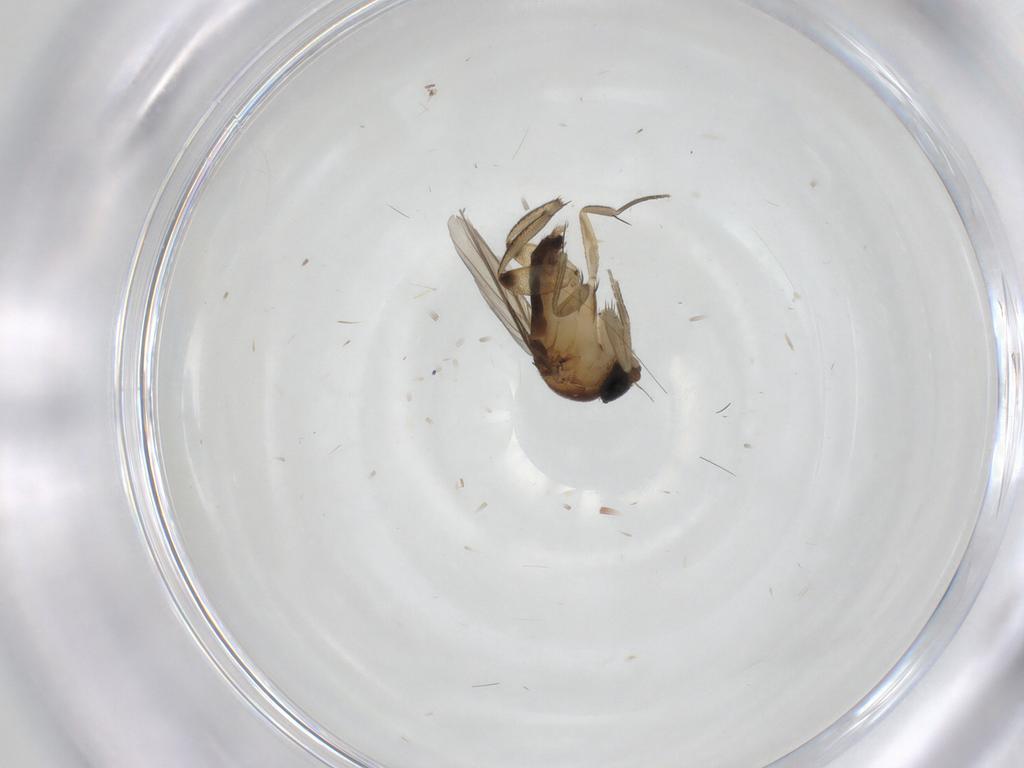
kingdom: Animalia
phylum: Arthropoda
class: Insecta
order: Diptera
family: Phoridae
